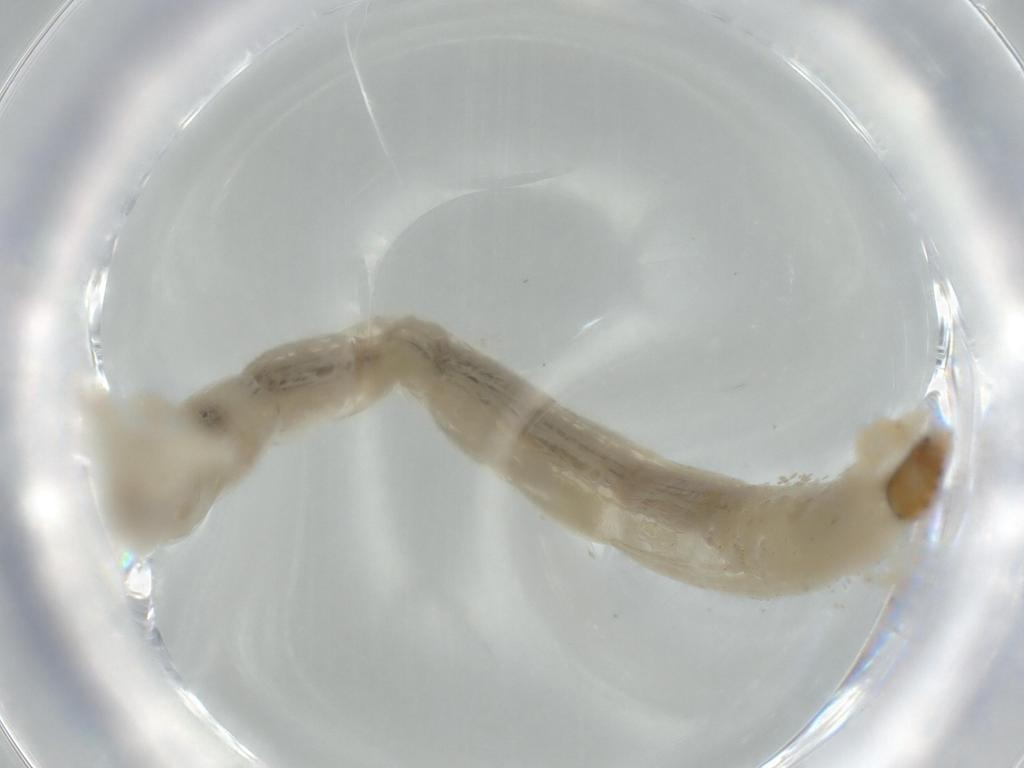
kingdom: Animalia
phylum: Arthropoda
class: Insecta
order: Diptera
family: Chironomidae
